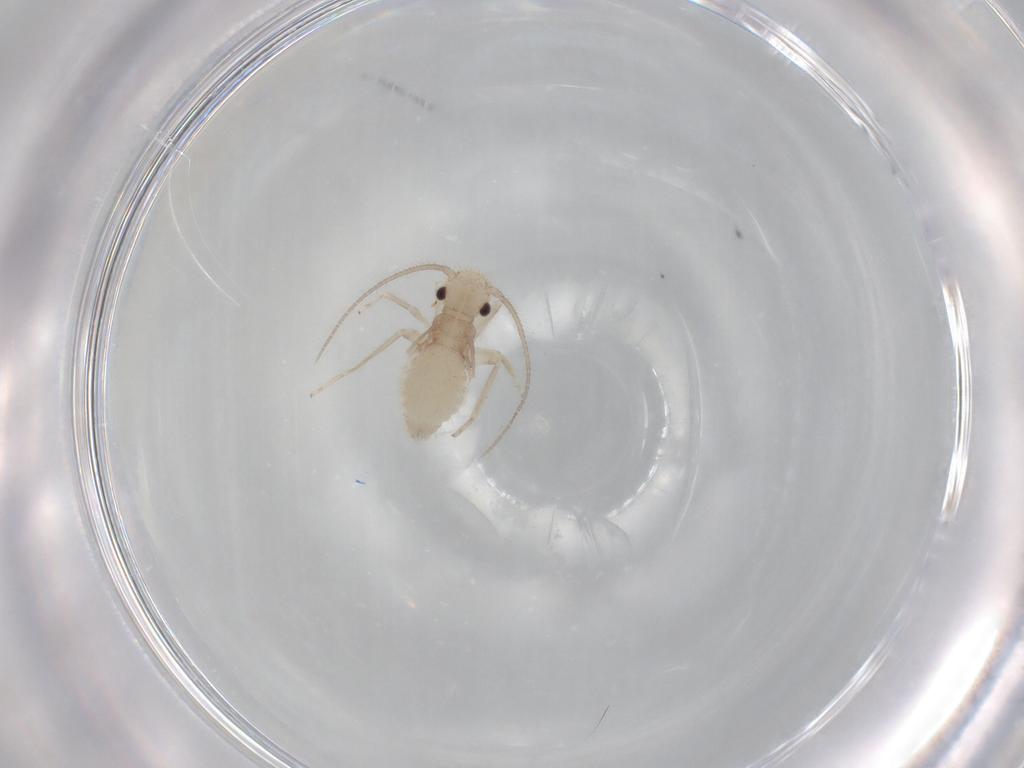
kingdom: Animalia
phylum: Arthropoda
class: Insecta
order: Psocodea
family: Cladiopsocidae
